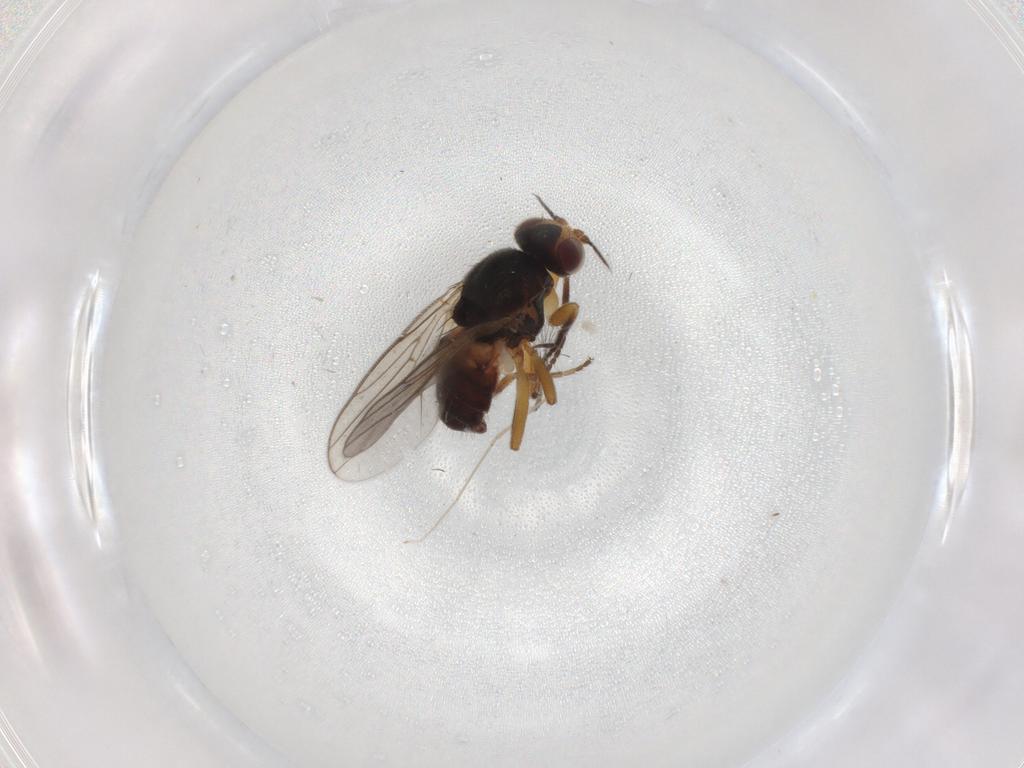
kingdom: Animalia
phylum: Arthropoda
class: Insecta
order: Diptera
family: Chloropidae
